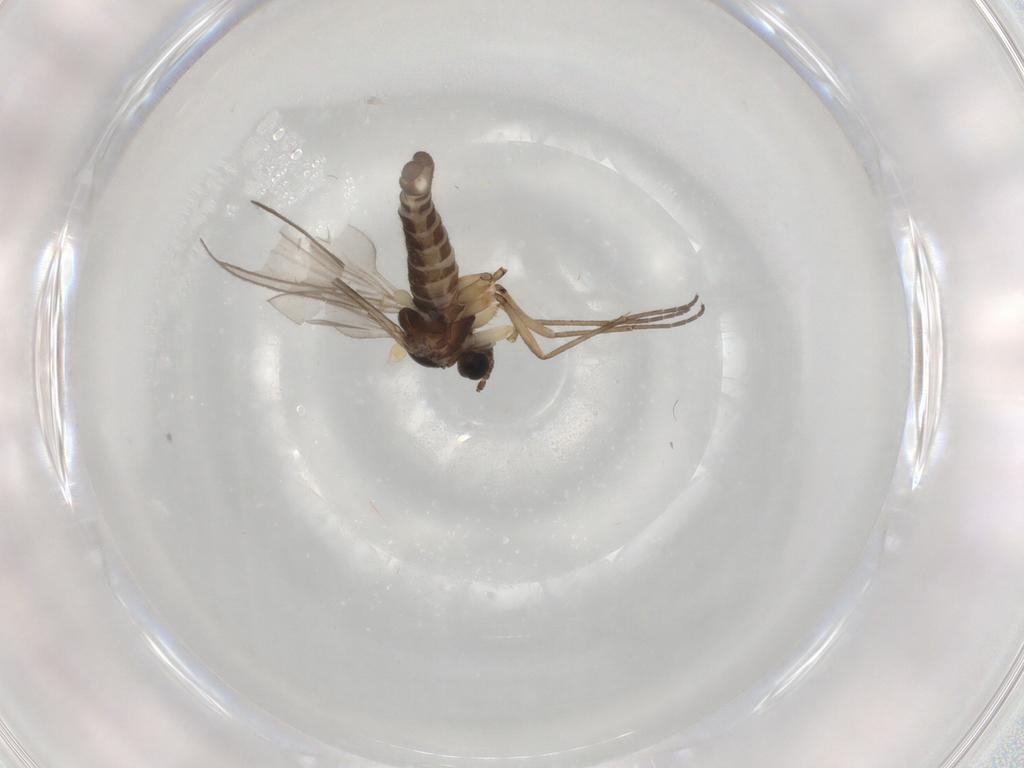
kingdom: Animalia
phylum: Arthropoda
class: Insecta
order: Diptera
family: Sciaridae
